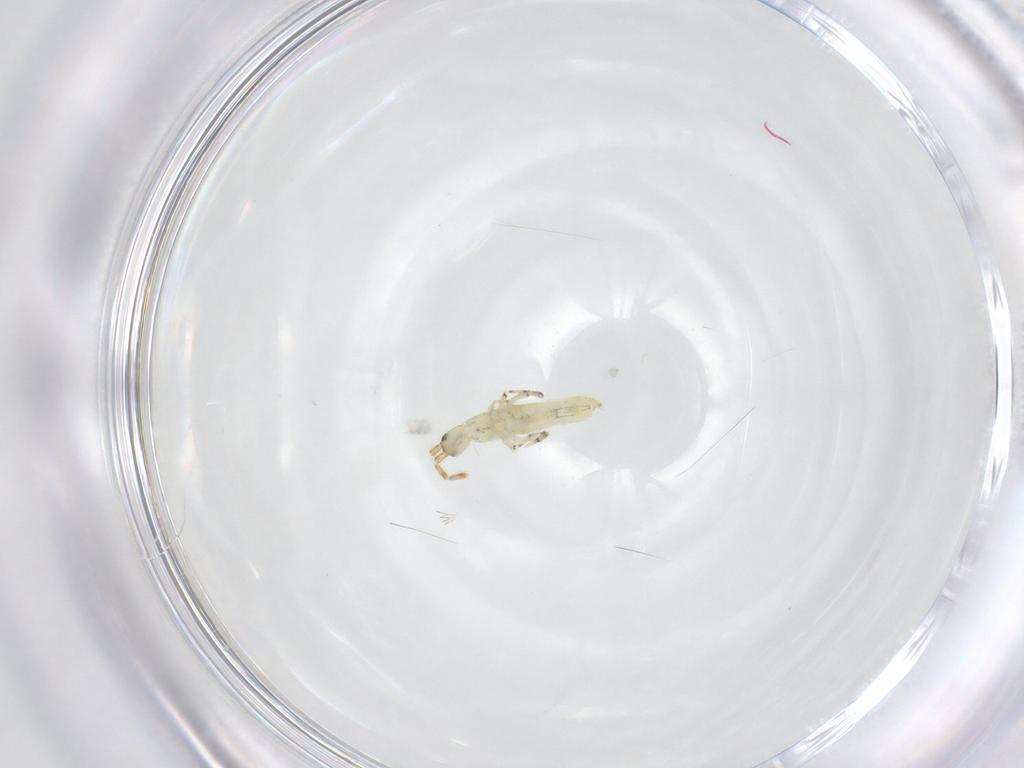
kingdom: Animalia
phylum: Arthropoda
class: Collembola
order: Entomobryomorpha
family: Entomobryidae
